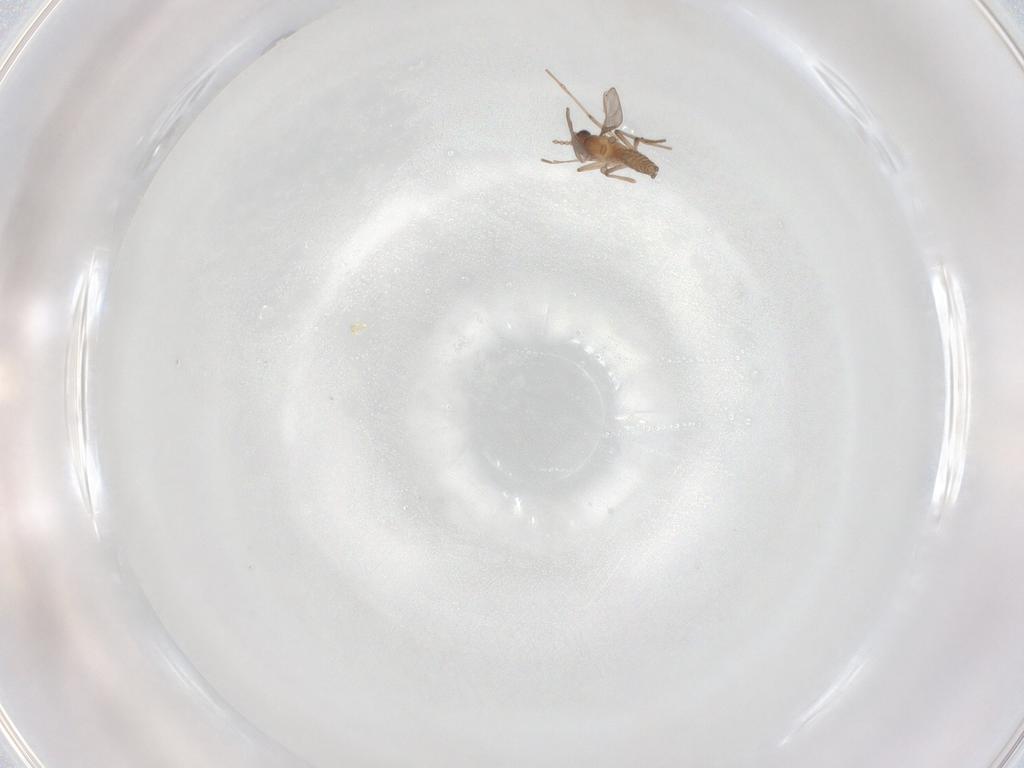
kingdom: Animalia
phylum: Arthropoda
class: Insecta
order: Diptera
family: Cecidomyiidae
